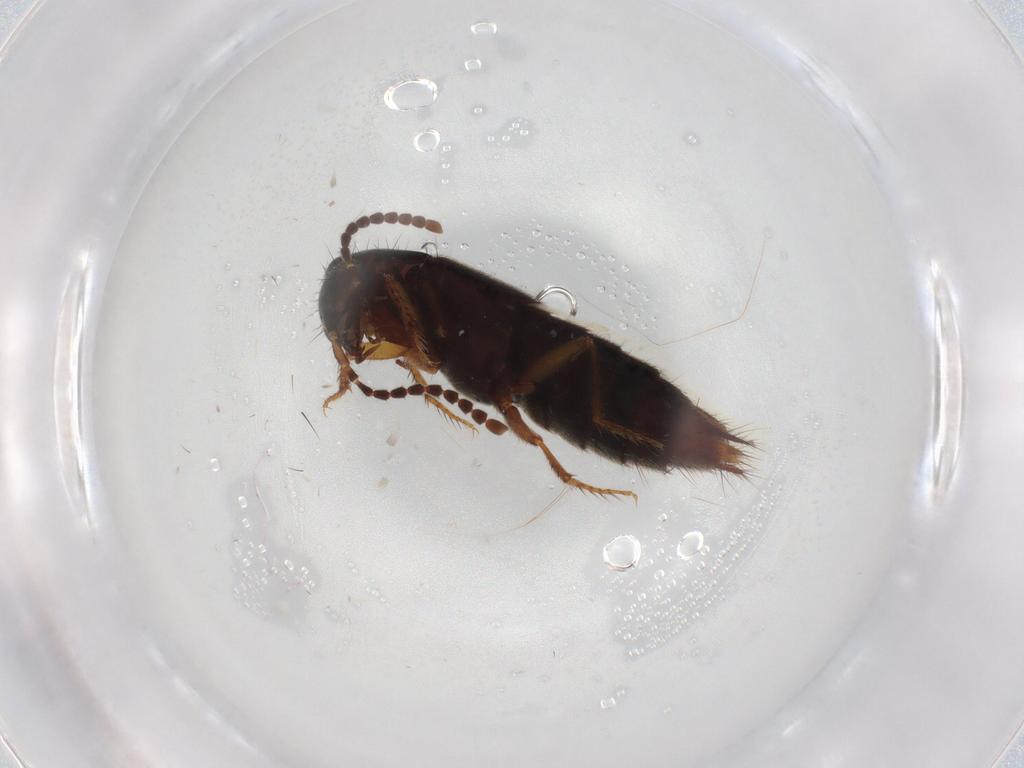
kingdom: Animalia
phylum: Arthropoda
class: Insecta
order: Coleoptera
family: Staphylinidae
